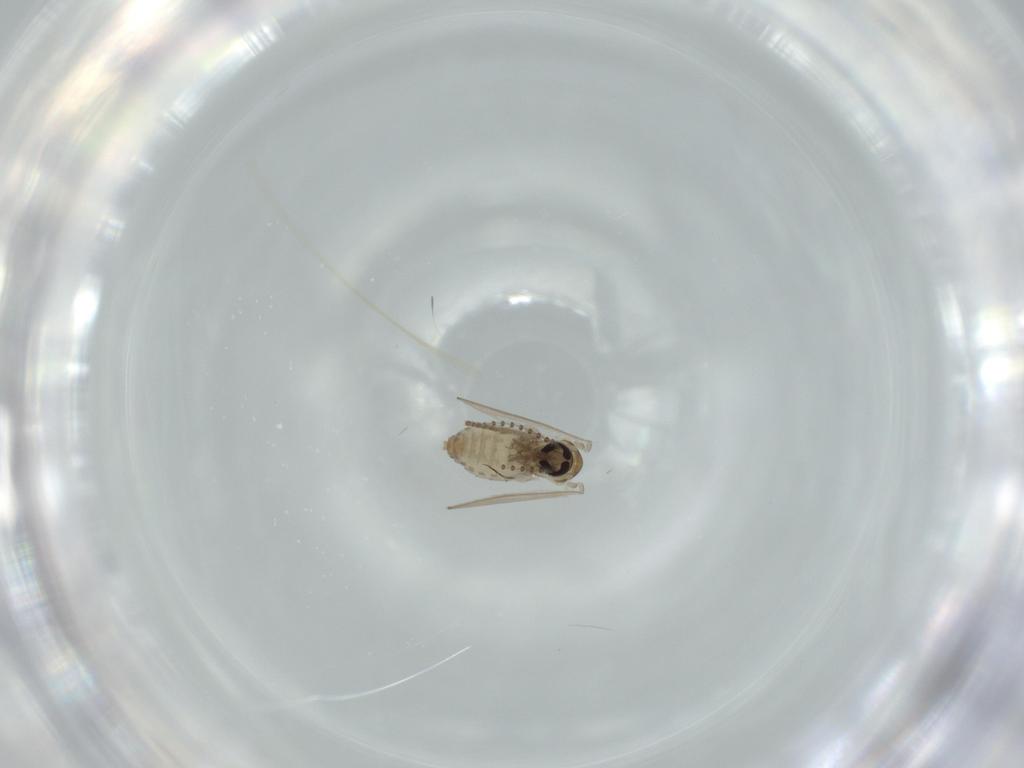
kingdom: Animalia
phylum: Arthropoda
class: Insecta
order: Diptera
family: Psychodidae
